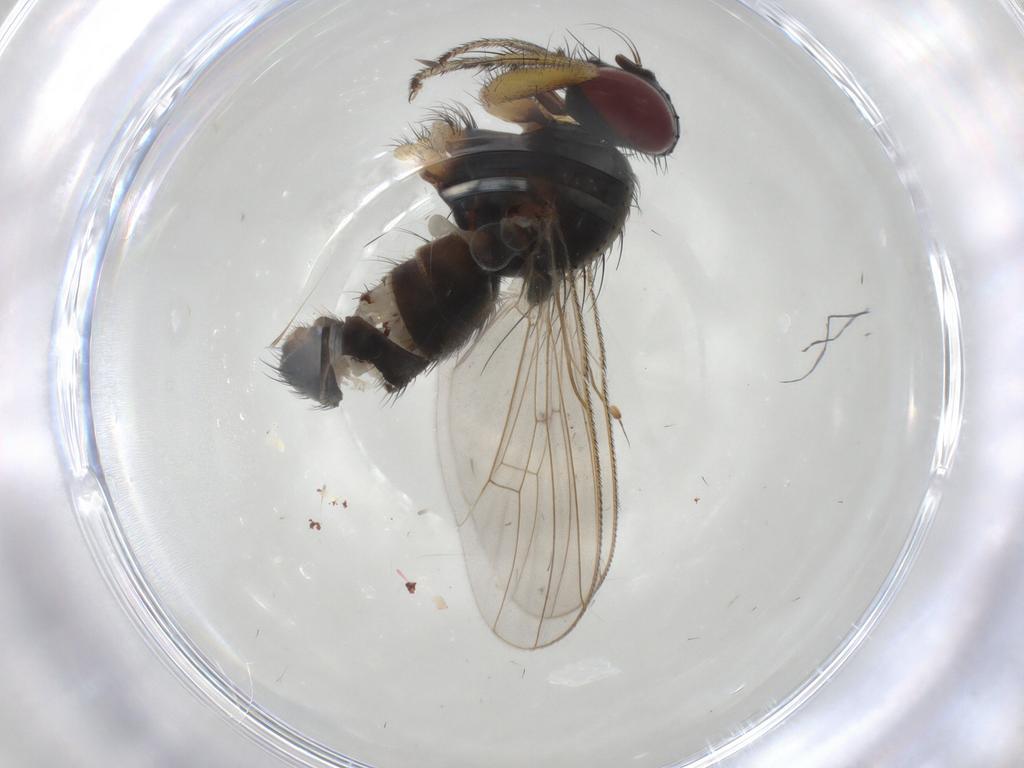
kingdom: Animalia
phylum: Arthropoda
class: Insecta
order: Diptera
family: Muscidae
